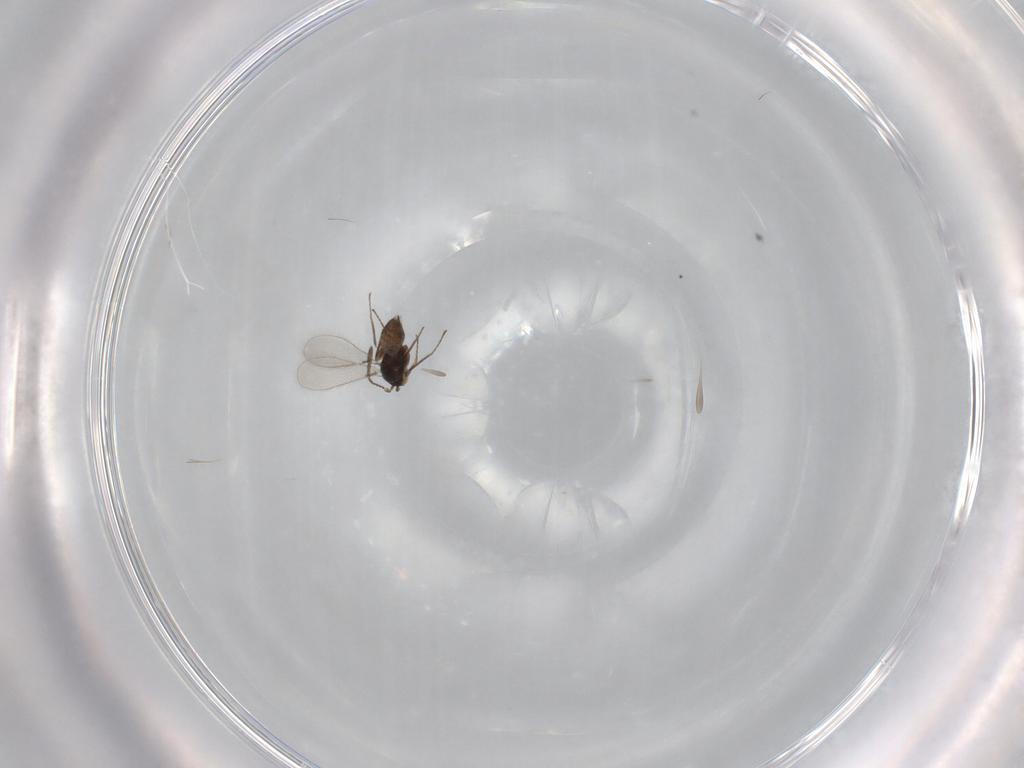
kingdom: Animalia
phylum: Arthropoda
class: Insecta
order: Hymenoptera
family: Mymaridae
